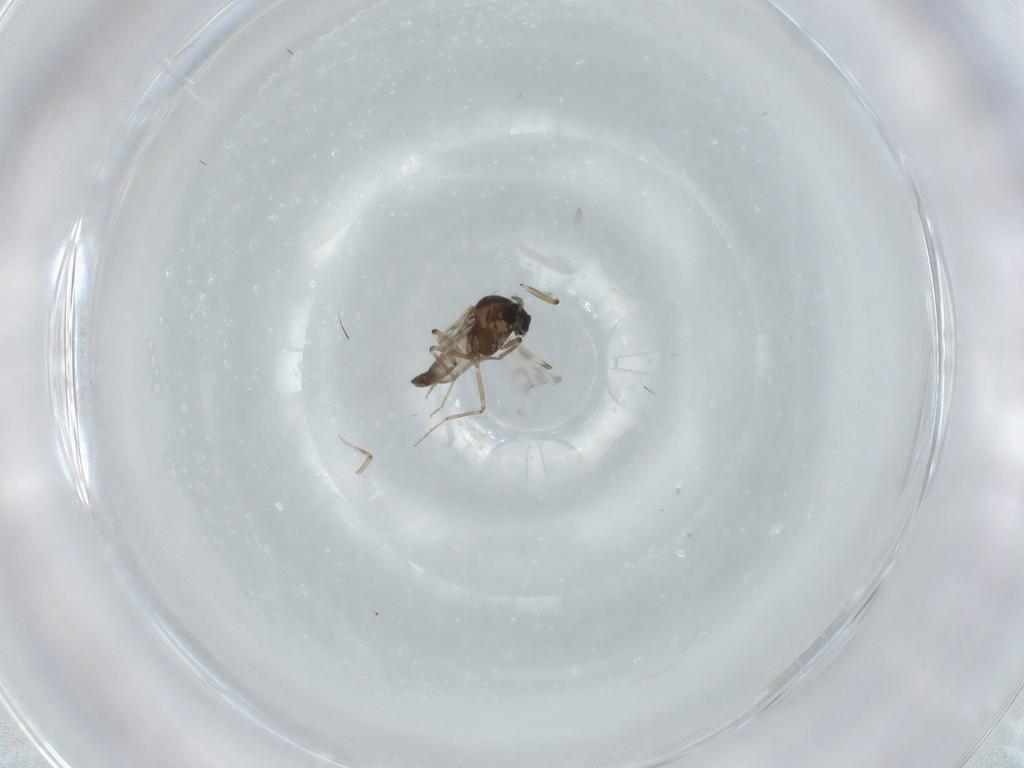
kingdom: Animalia
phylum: Arthropoda
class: Insecta
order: Diptera
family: Ceratopogonidae
